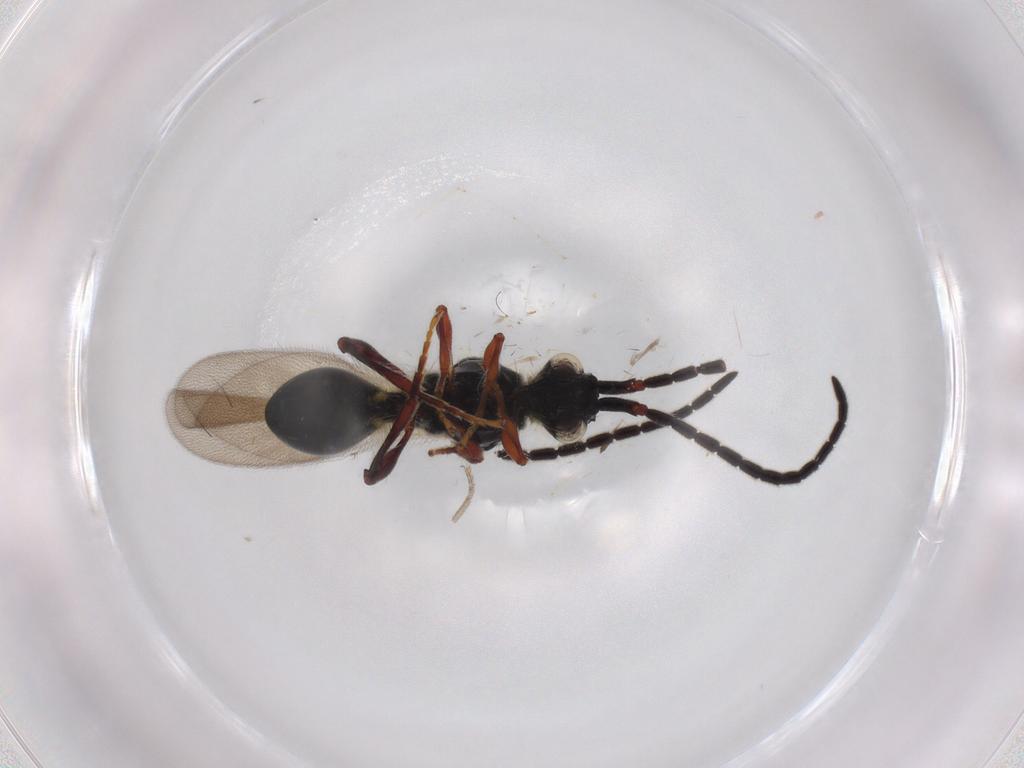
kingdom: Animalia
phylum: Arthropoda
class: Insecta
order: Hymenoptera
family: Diapriidae
